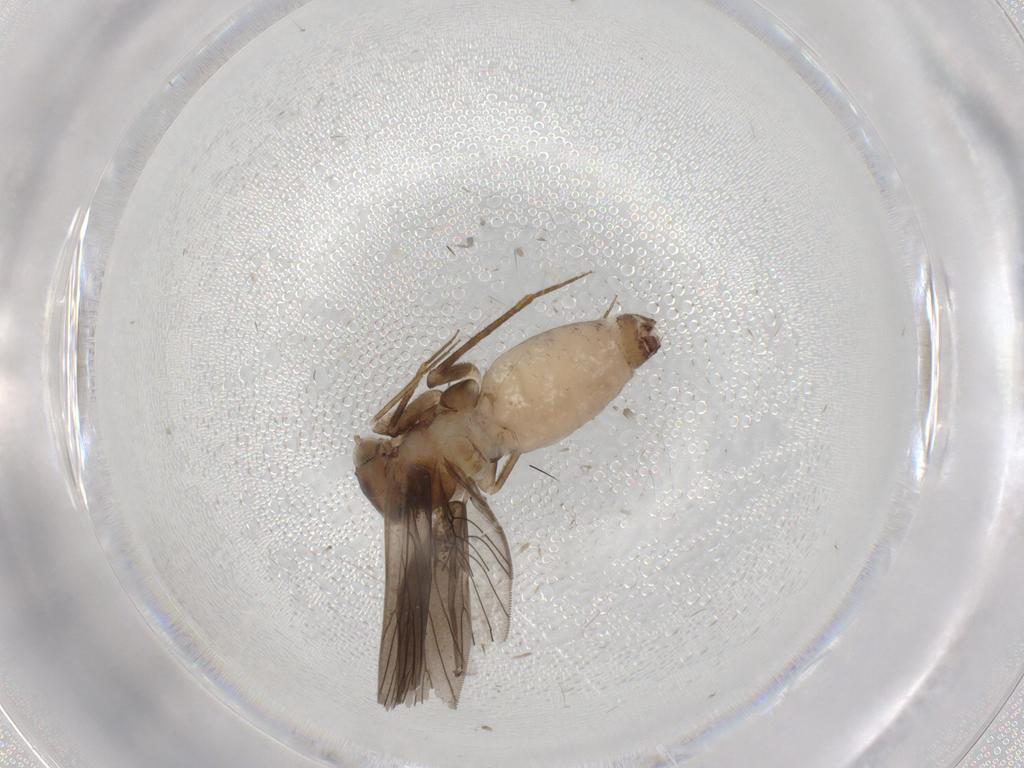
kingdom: Animalia
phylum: Arthropoda
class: Insecta
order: Psocodea
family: Lepidopsocidae
